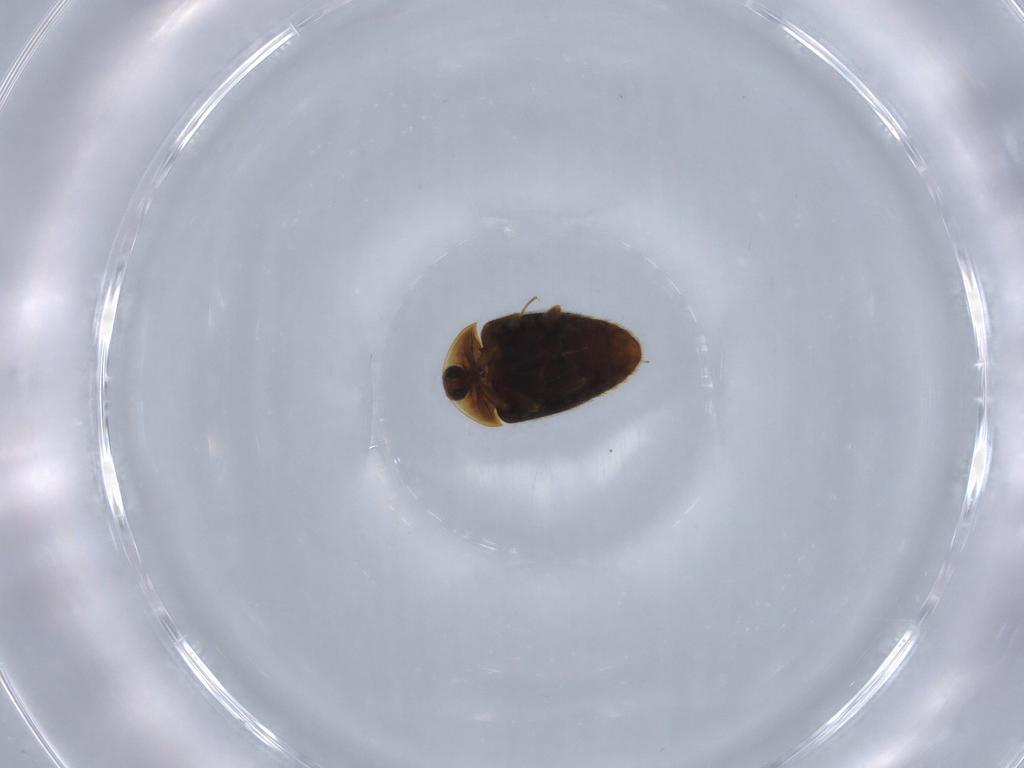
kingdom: Animalia
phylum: Arthropoda
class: Insecta
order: Coleoptera
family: Corylophidae
